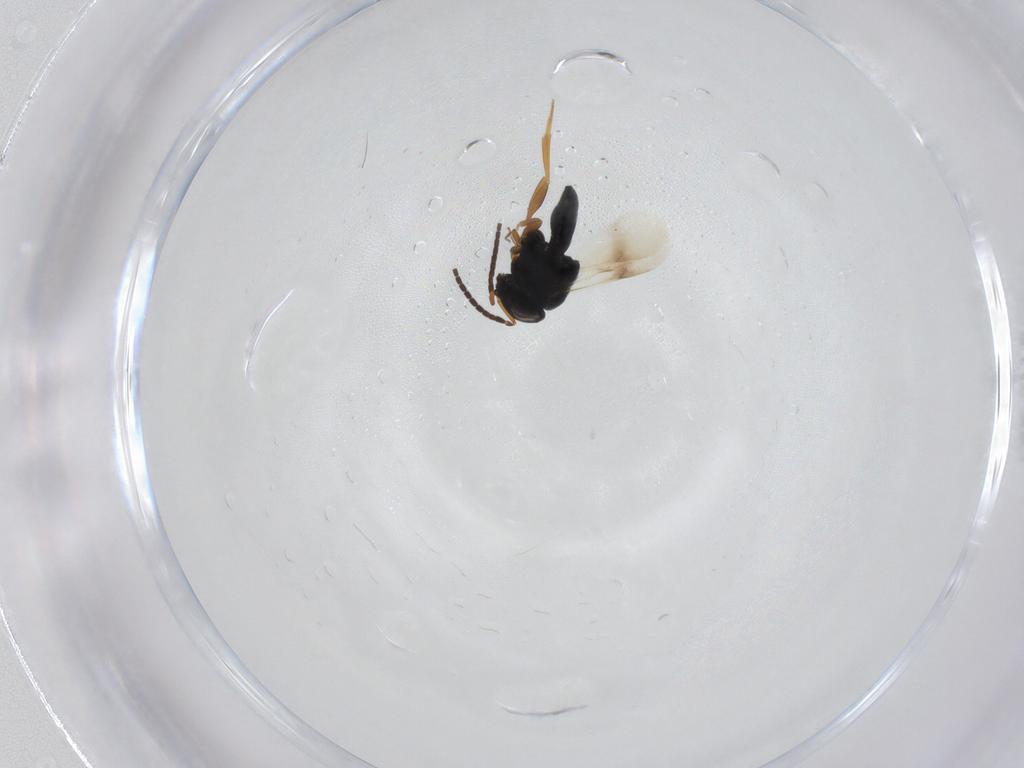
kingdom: Animalia
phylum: Arthropoda
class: Insecta
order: Hymenoptera
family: Scelionidae
